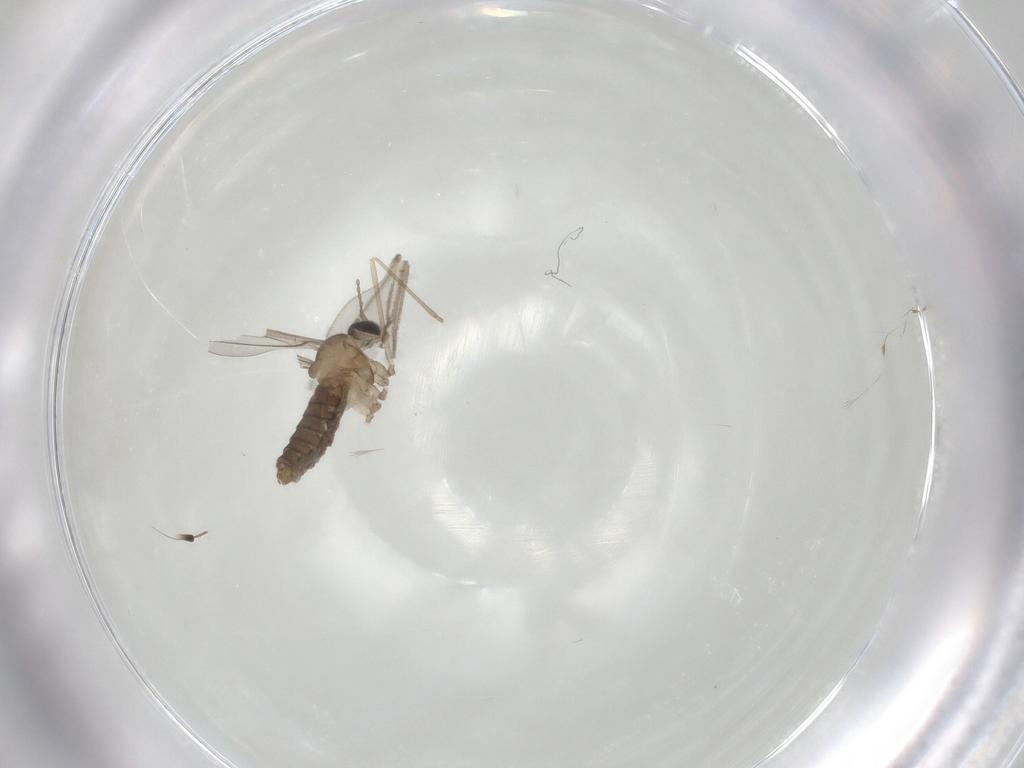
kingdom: Animalia
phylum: Arthropoda
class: Insecta
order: Diptera
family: Cecidomyiidae
